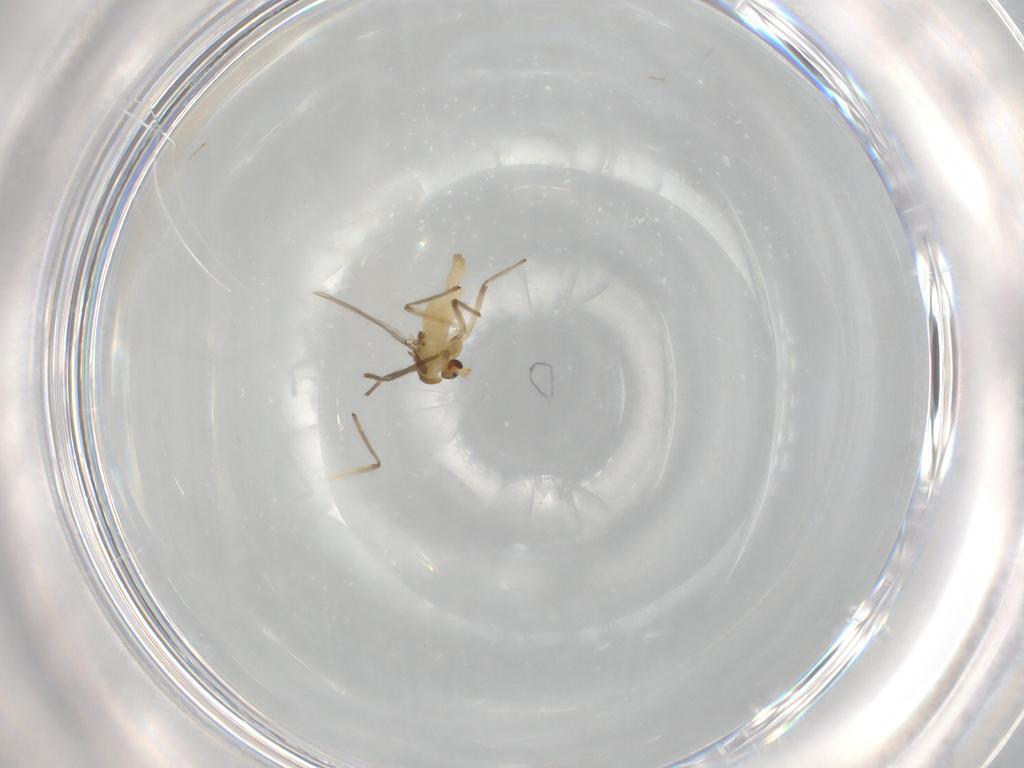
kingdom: Animalia
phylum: Arthropoda
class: Insecta
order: Diptera
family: Chironomidae
